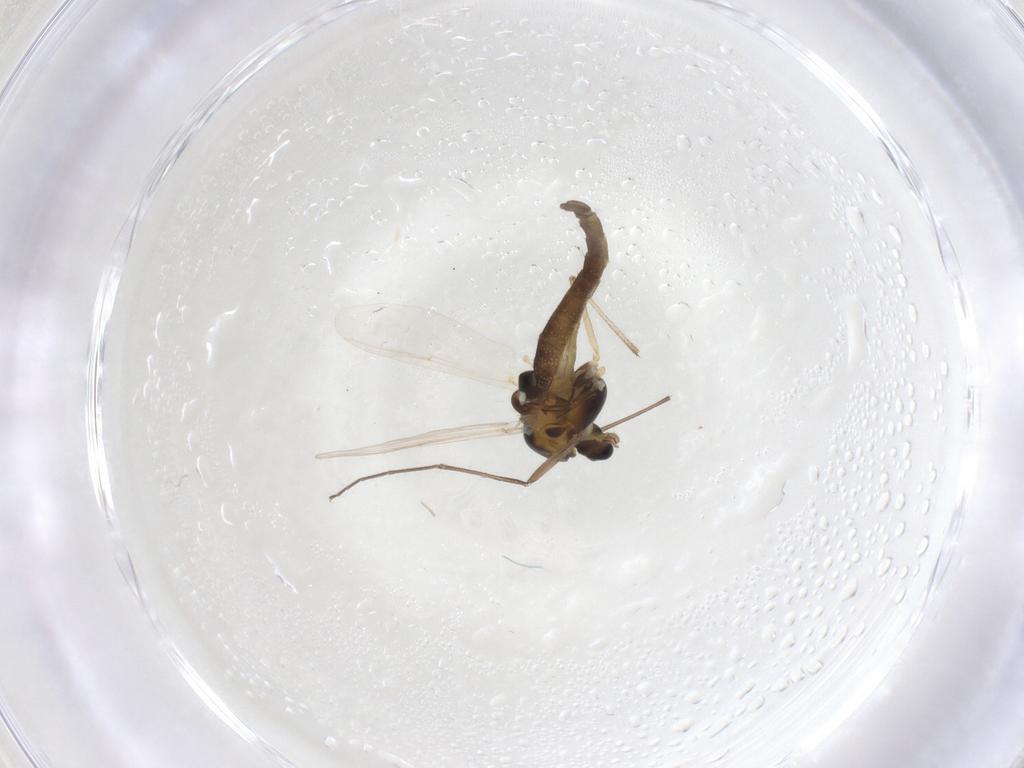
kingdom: Animalia
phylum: Arthropoda
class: Insecta
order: Diptera
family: Chironomidae
